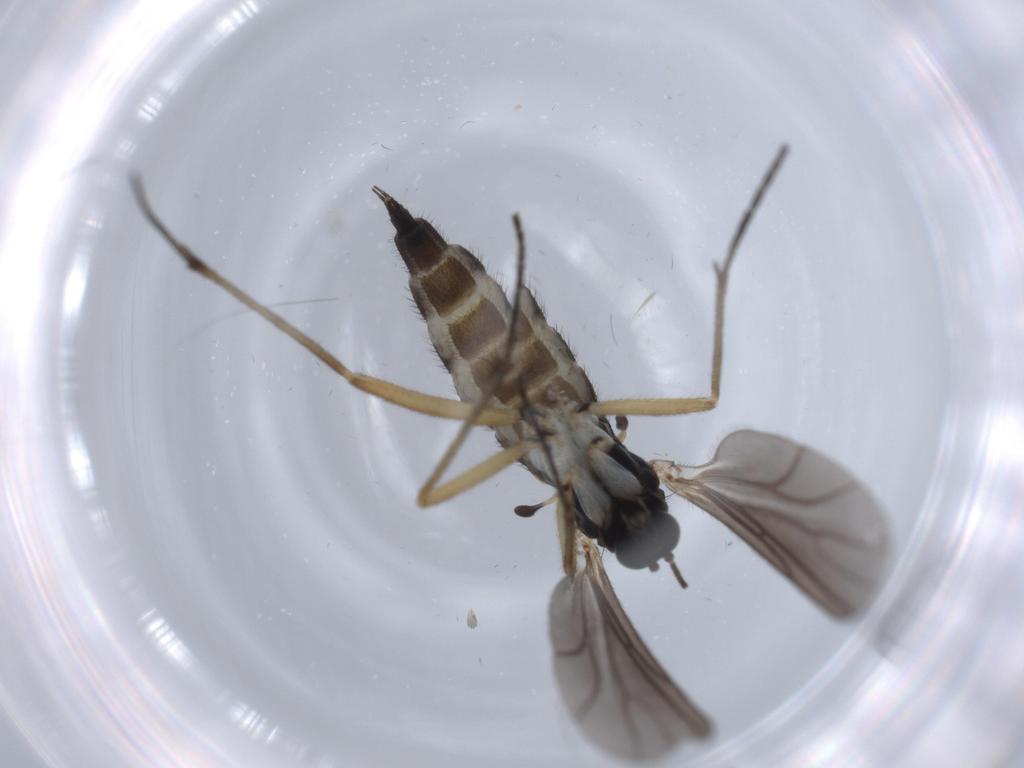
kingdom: Animalia
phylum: Arthropoda
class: Insecta
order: Diptera
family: Sciaridae
